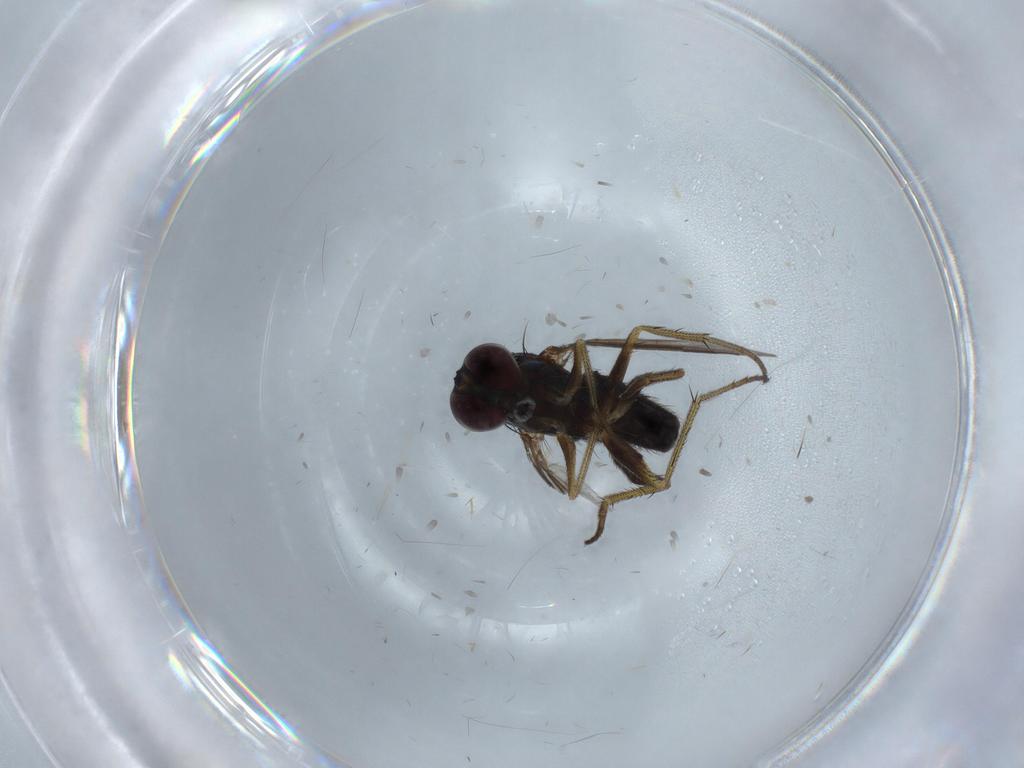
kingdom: Animalia
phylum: Arthropoda
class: Insecta
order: Diptera
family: Dolichopodidae
